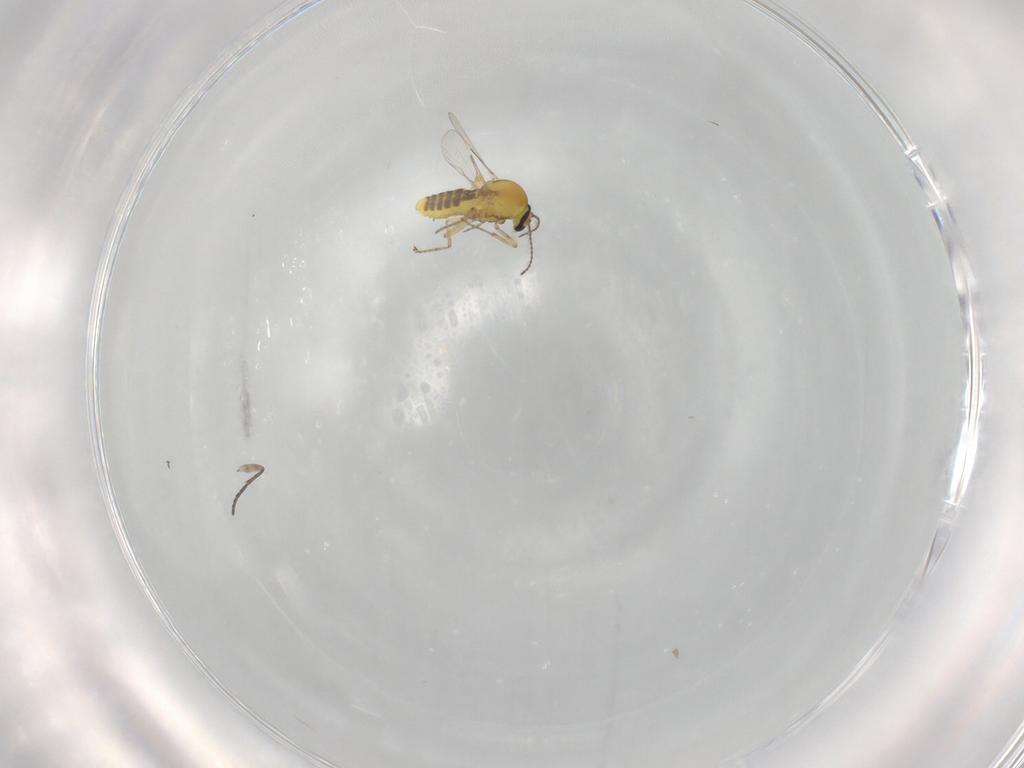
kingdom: Animalia
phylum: Arthropoda
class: Insecta
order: Diptera
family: Ceratopogonidae
